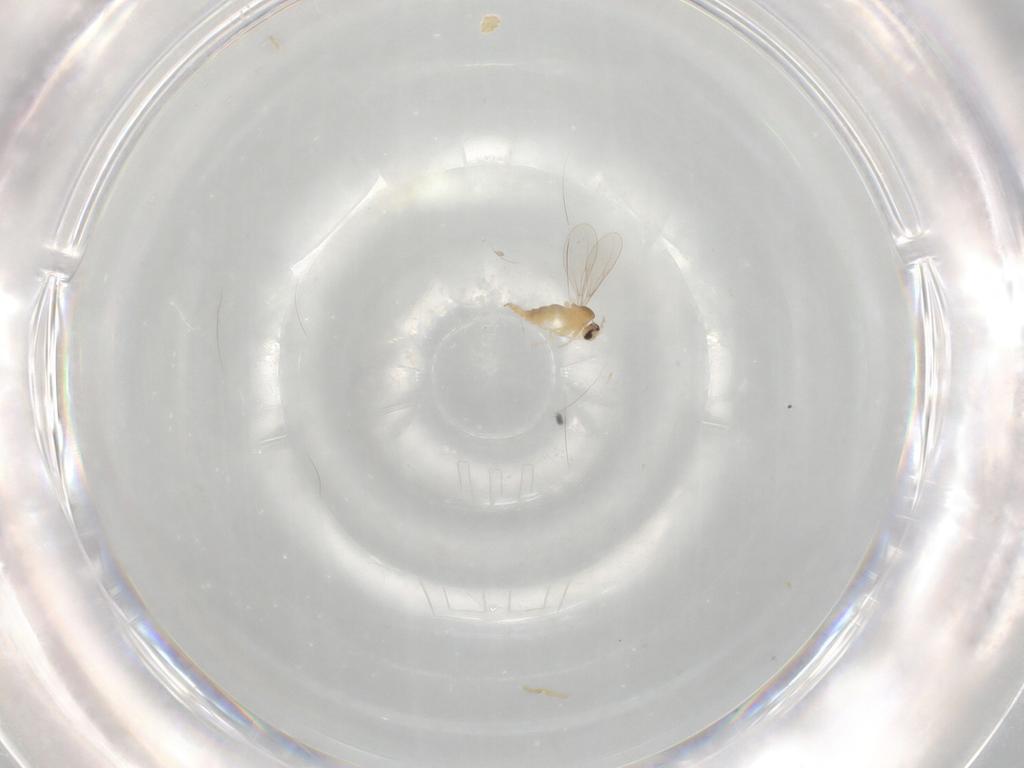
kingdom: Animalia
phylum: Arthropoda
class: Insecta
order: Diptera
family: Cecidomyiidae
